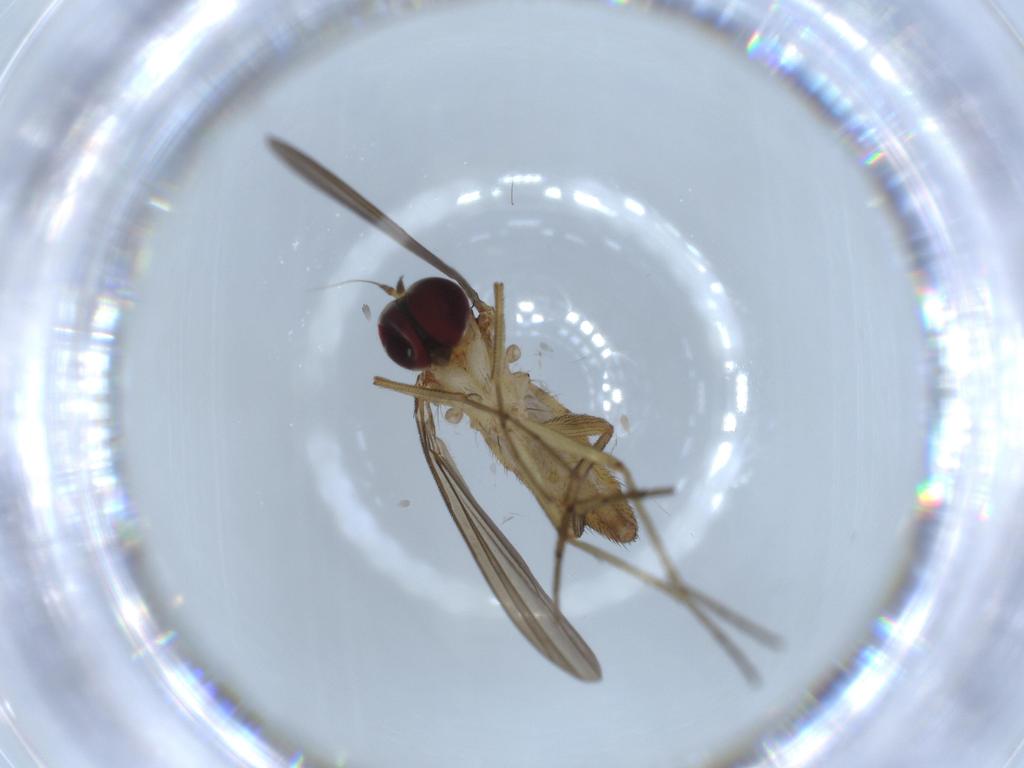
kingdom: Animalia
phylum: Arthropoda
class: Insecta
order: Diptera
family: Dolichopodidae
